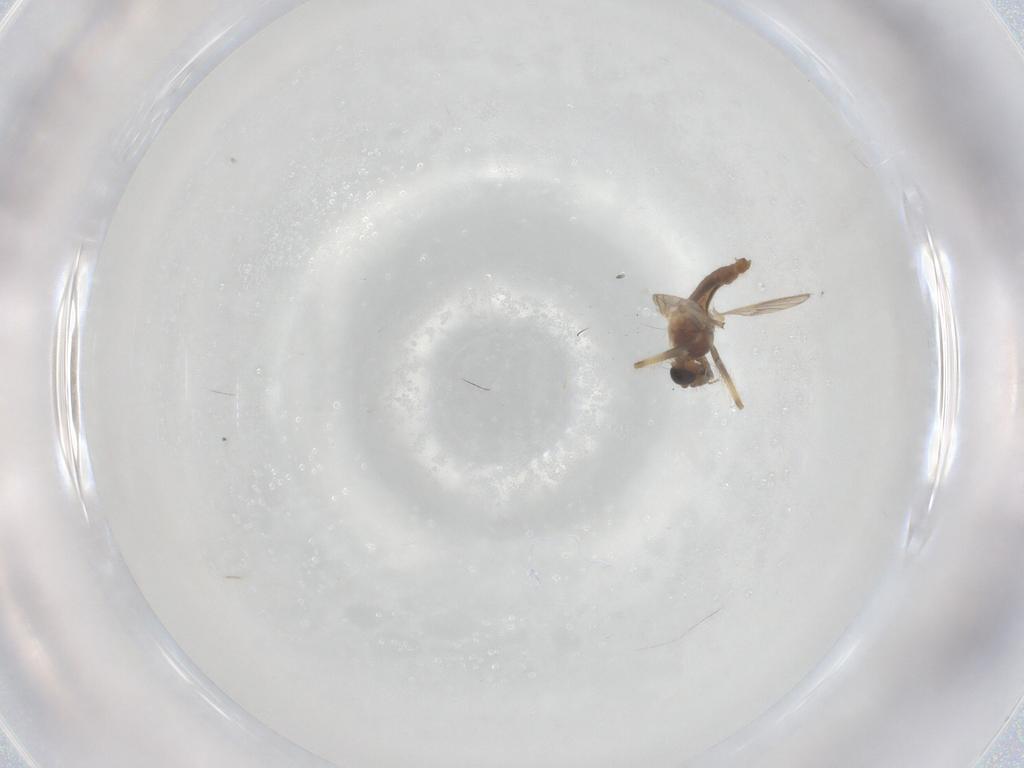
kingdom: Animalia
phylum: Arthropoda
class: Insecta
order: Diptera
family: Chironomidae
